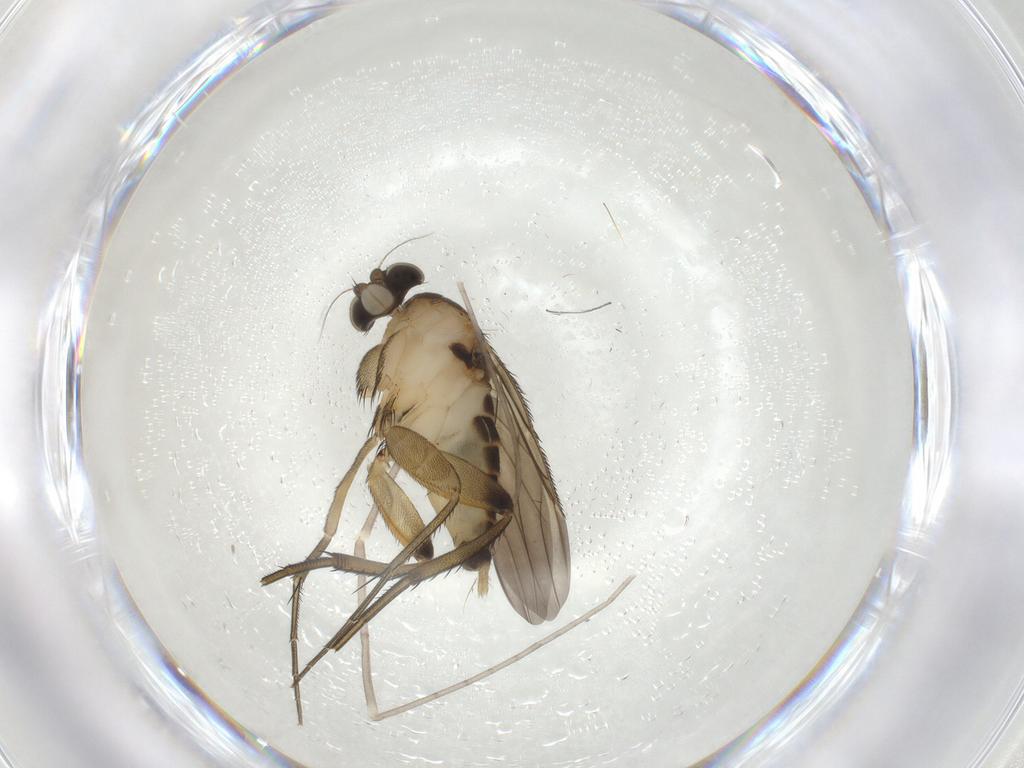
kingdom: Animalia
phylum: Arthropoda
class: Insecta
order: Diptera
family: Phoridae
